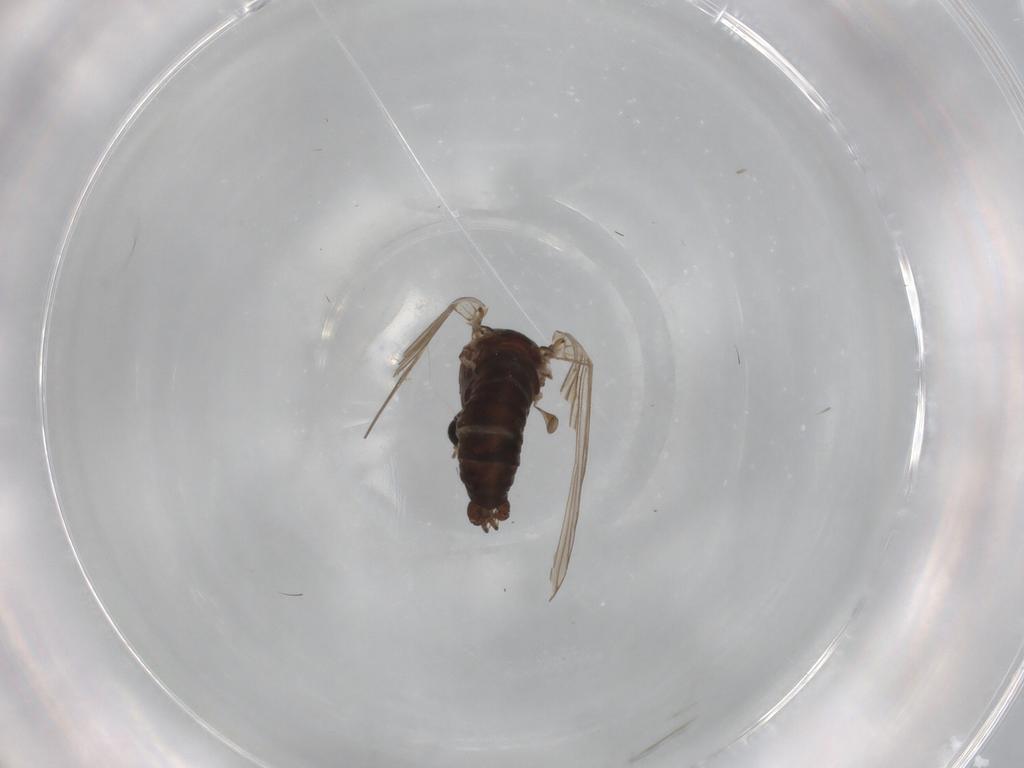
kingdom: Animalia
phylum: Arthropoda
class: Insecta
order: Diptera
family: Psychodidae
